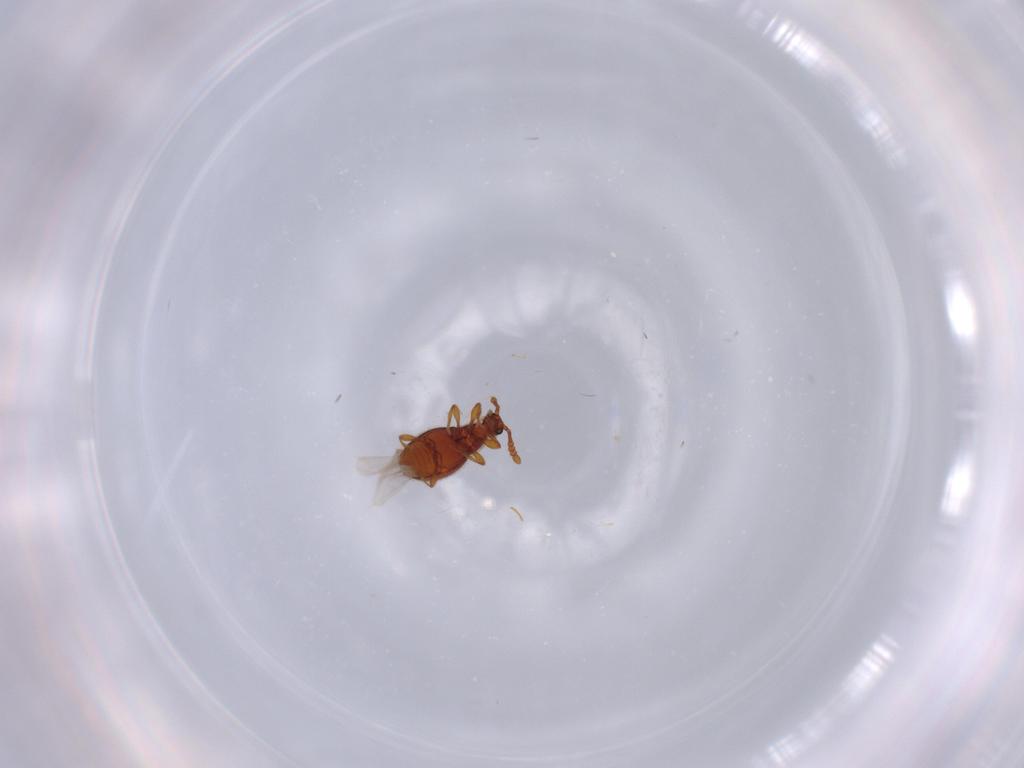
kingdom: Animalia
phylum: Arthropoda
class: Insecta
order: Coleoptera
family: Staphylinidae
